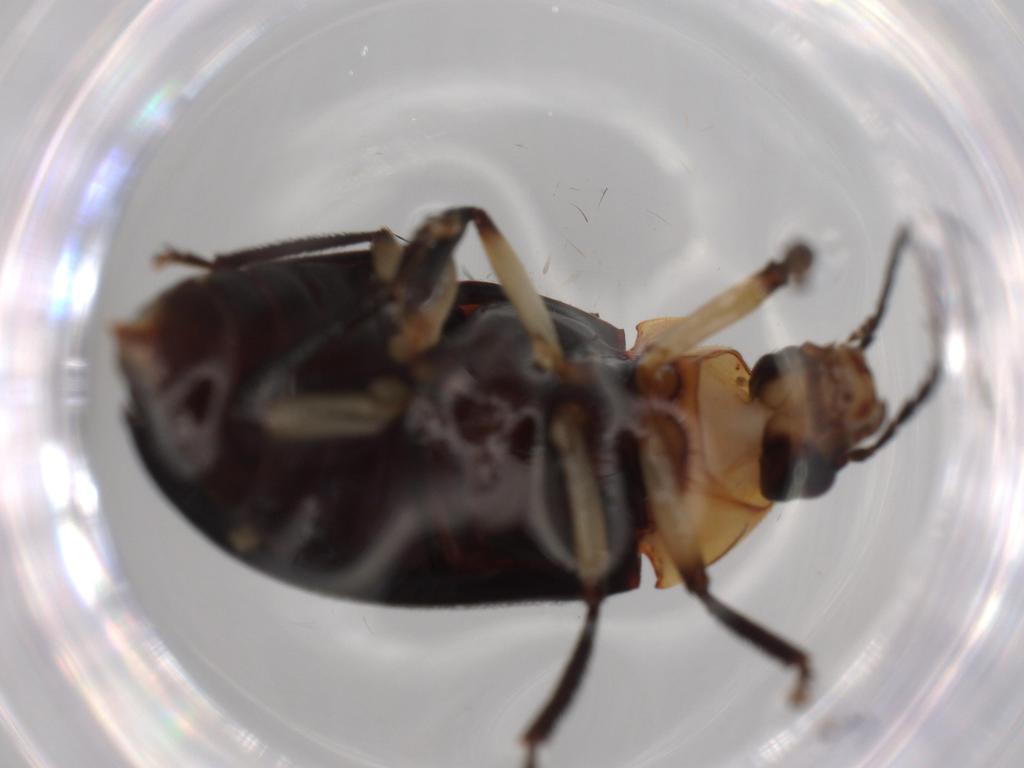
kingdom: Animalia
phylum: Arthropoda
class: Insecta
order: Coleoptera
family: Ptilodactylidae
